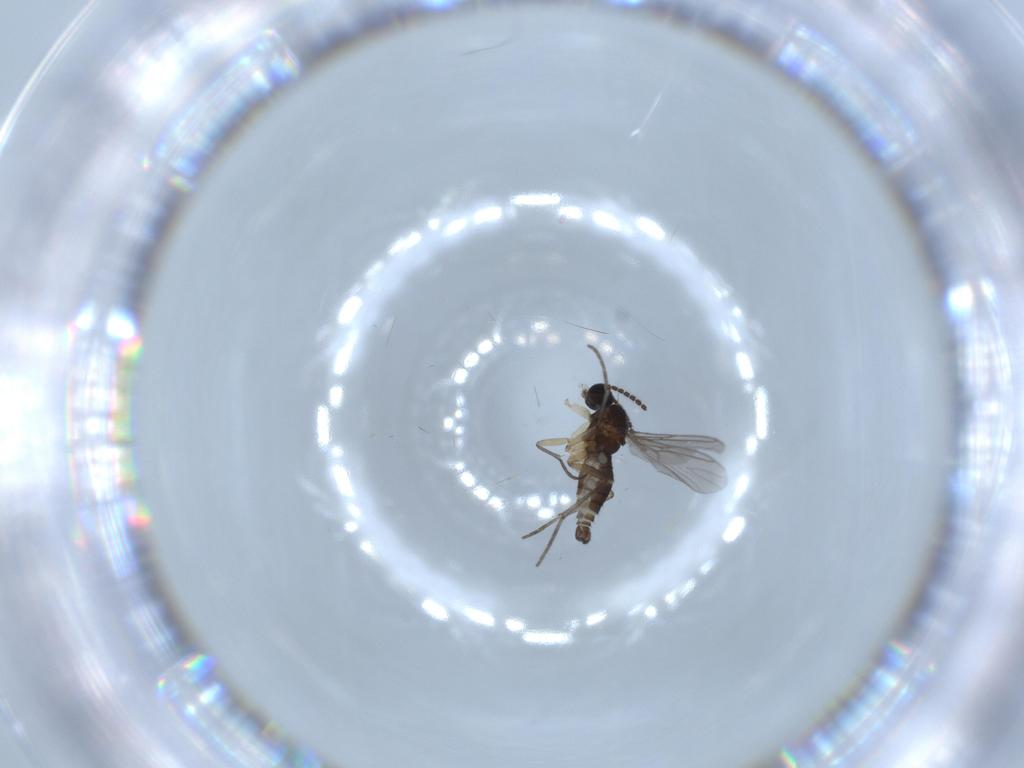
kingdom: Animalia
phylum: Arthropoda
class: Insecta
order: Diptera
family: Sciaridae
